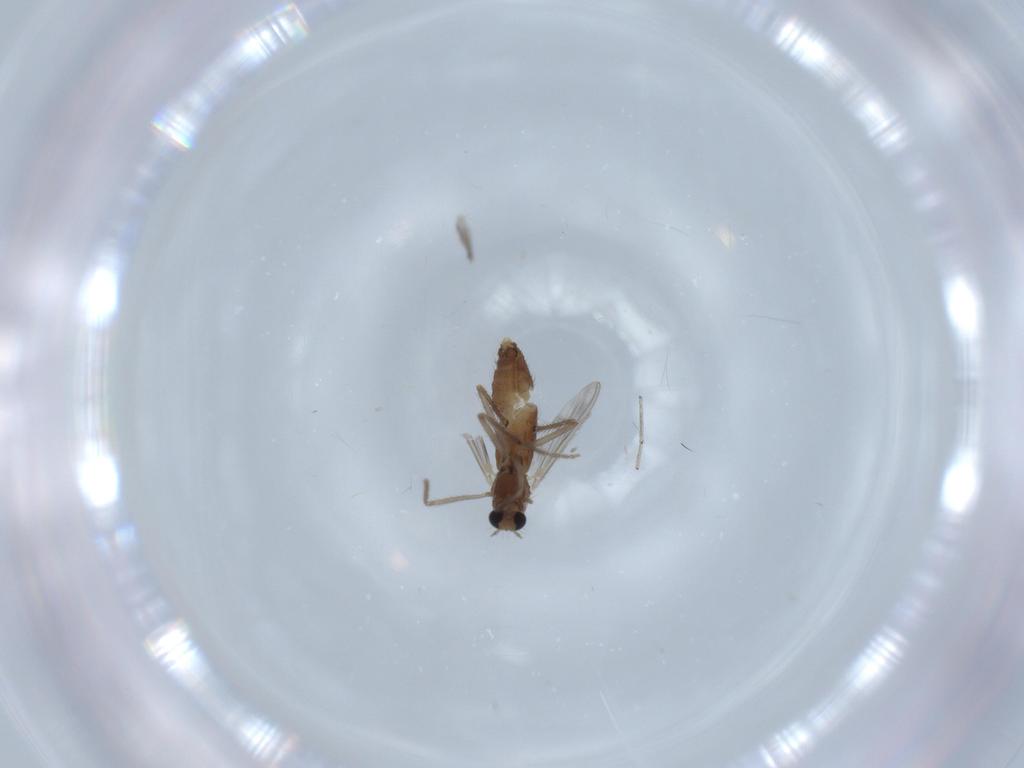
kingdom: Animalia
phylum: Arthropoda
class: Insecta
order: Diptera
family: Chironomidae
